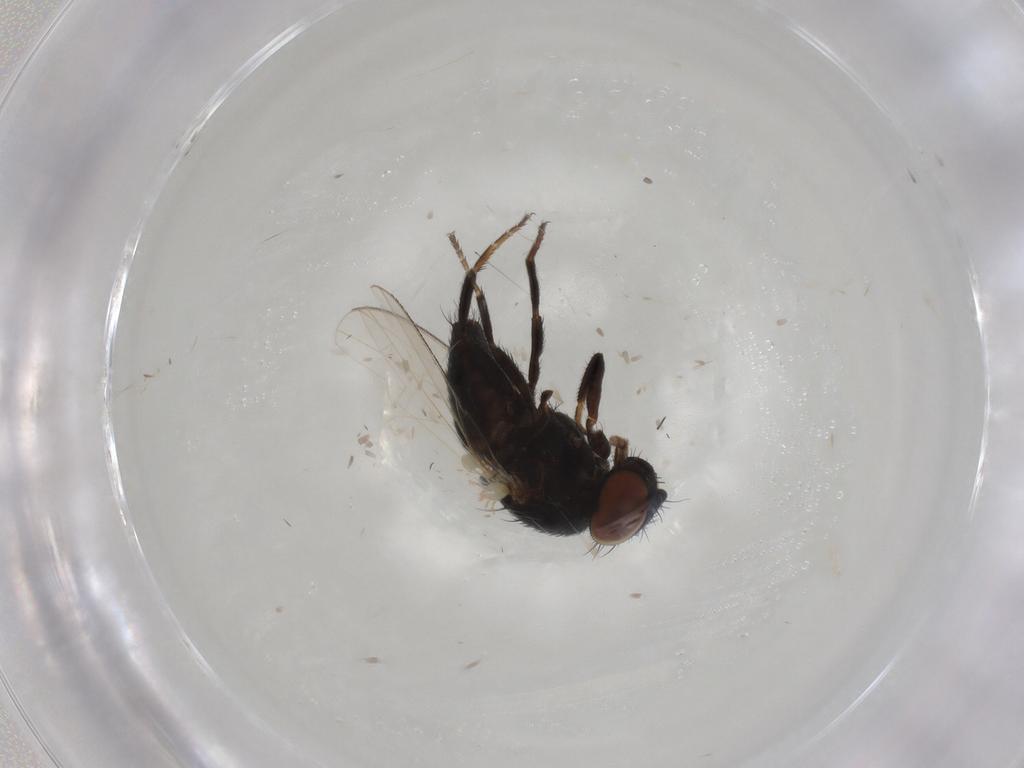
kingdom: Animalia
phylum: Arthropoda
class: Insecta
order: Diptera
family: Milichiidae
